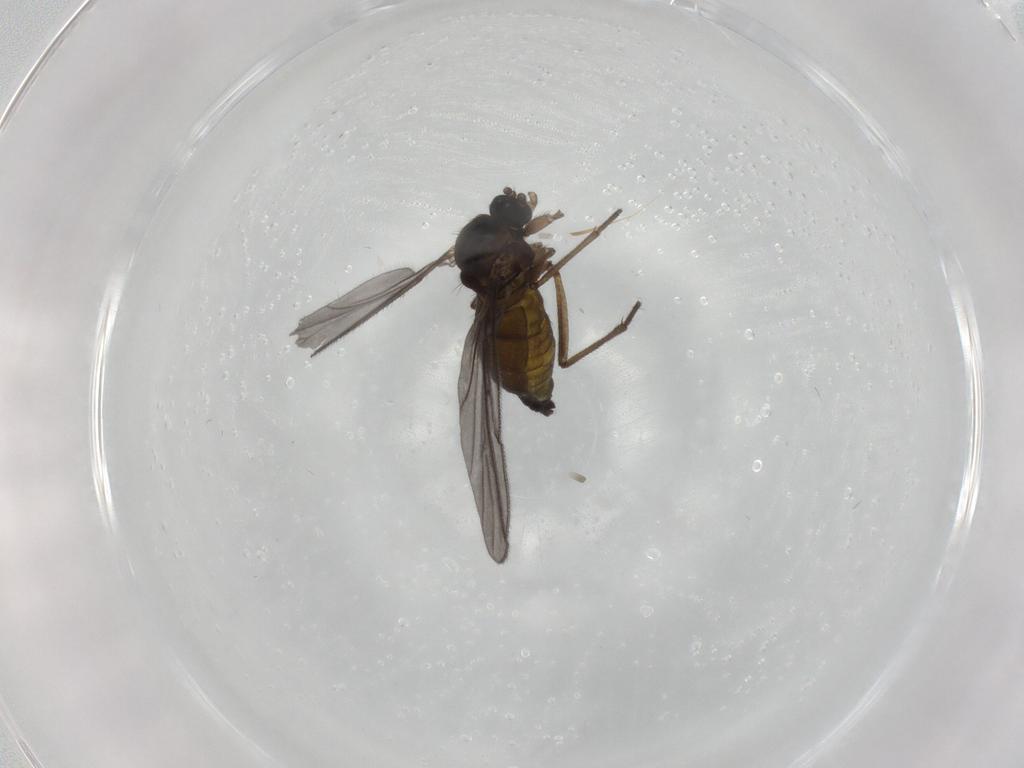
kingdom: Animalia
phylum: Arthropoda
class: Insecta
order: Diptera
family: Sciaridae
